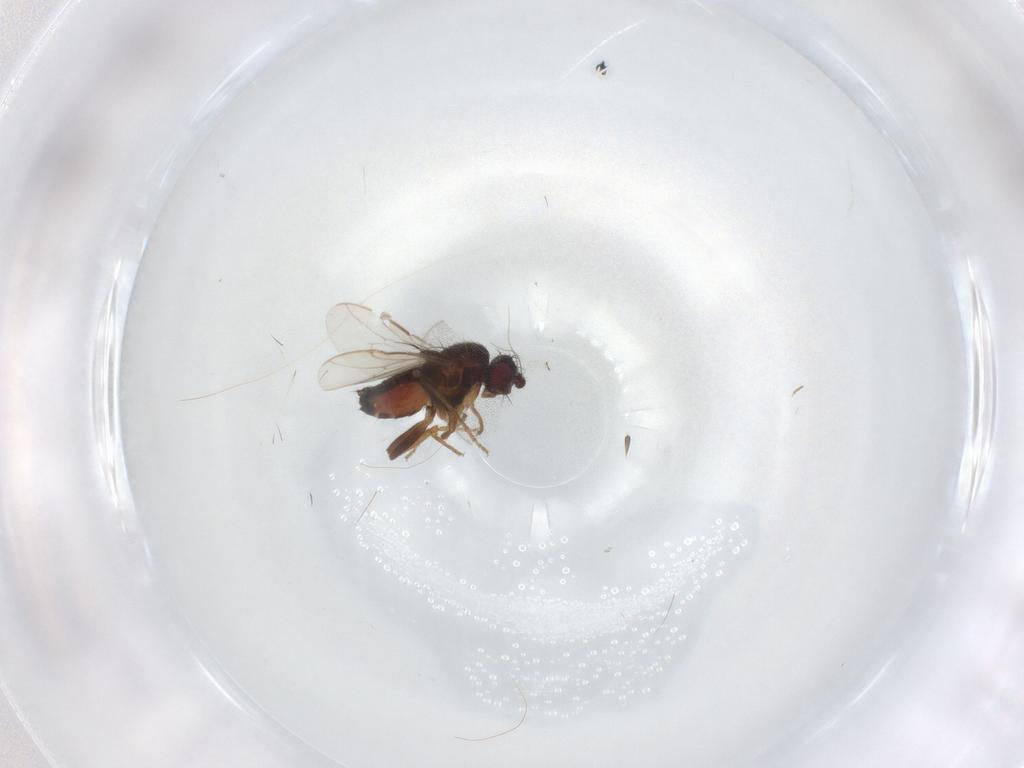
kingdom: Animalia
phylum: Arthropoda
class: Insecta
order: Diptera
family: Sphaeroceridae
